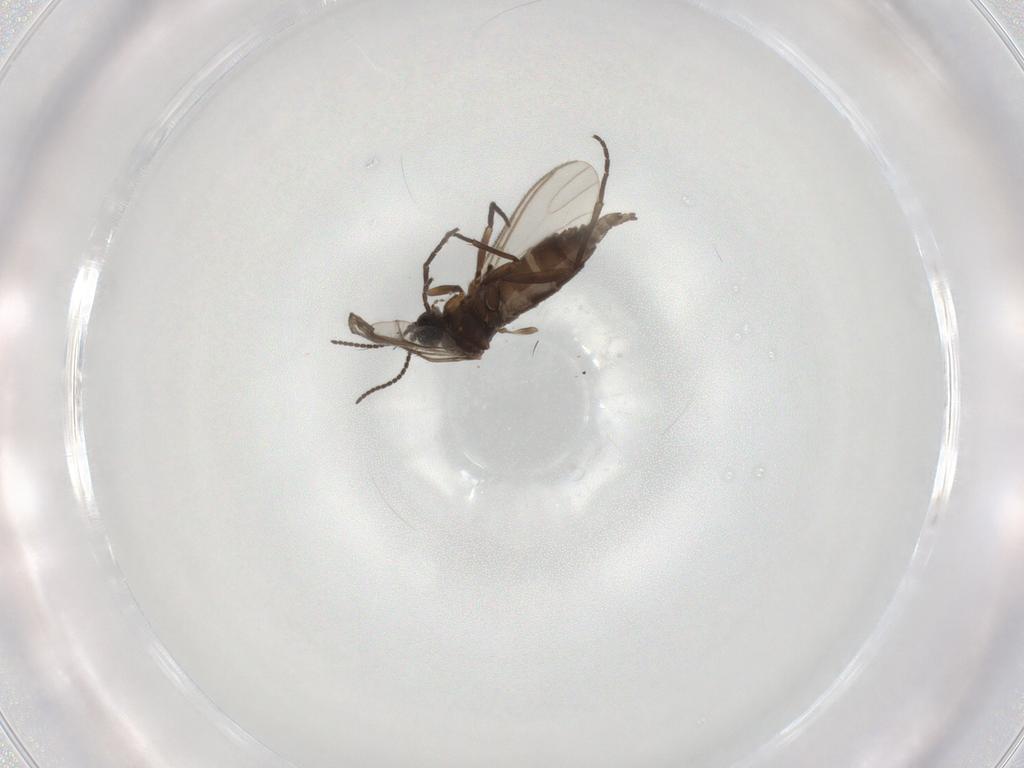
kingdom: Animalia
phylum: Arthropoda
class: Insecta
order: Diptera
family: Sciaridae
